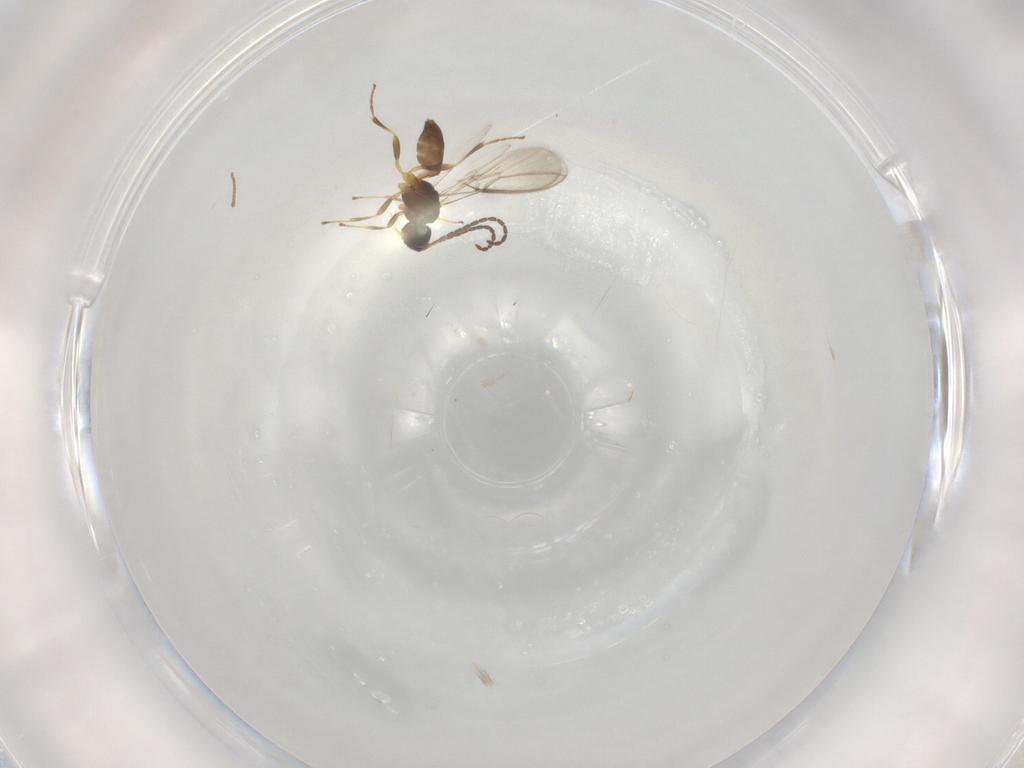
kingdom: Animalia
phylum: Arthropoda
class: Insecta
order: Hymenoptera
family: Braconidae
